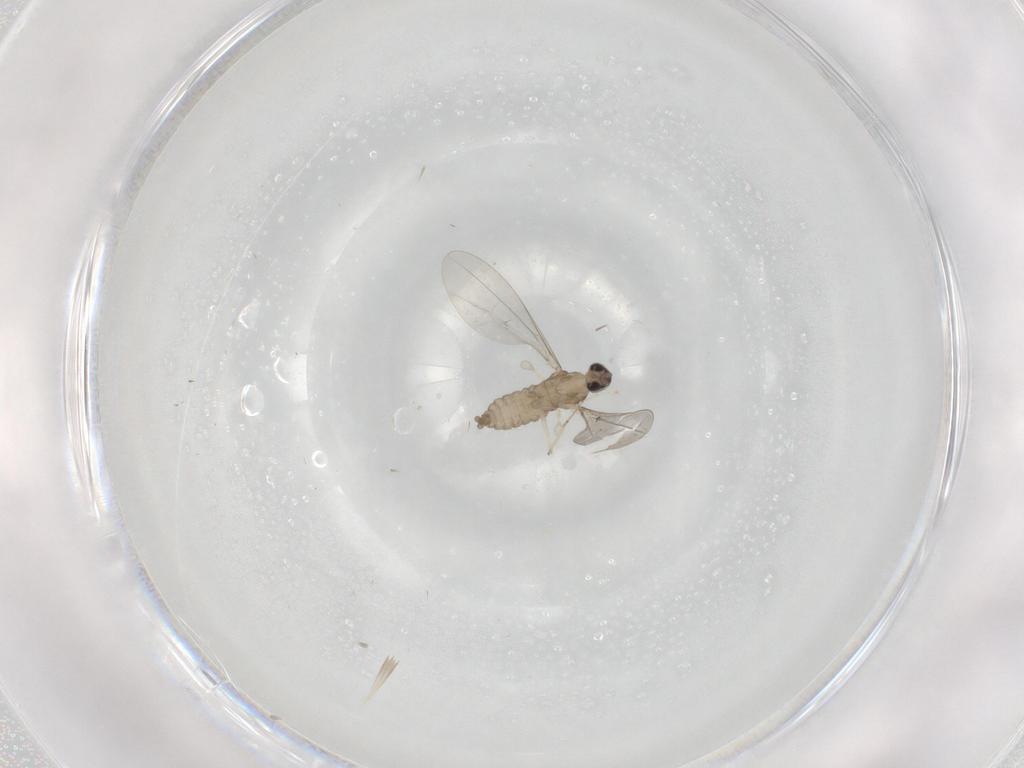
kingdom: Animalia
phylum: Arthropoda
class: Insecta
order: Diptera
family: Cecidomyiidae
